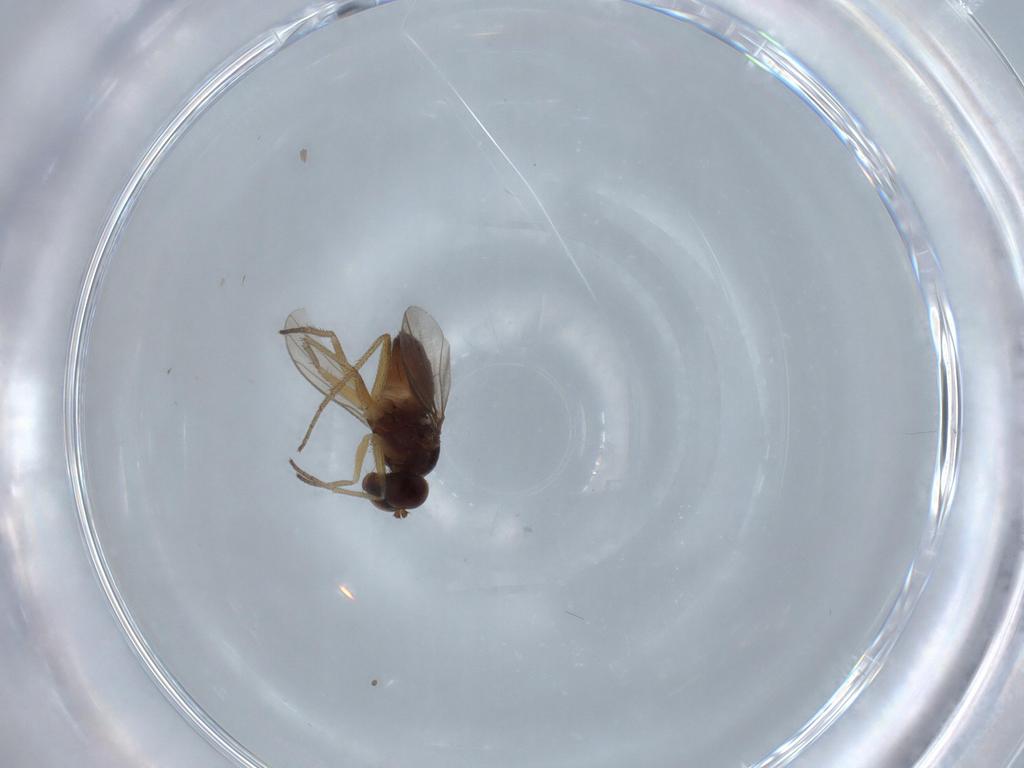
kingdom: Animalia
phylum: Arthropoda
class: Insecta
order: Diptera
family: Dolichopodidae
